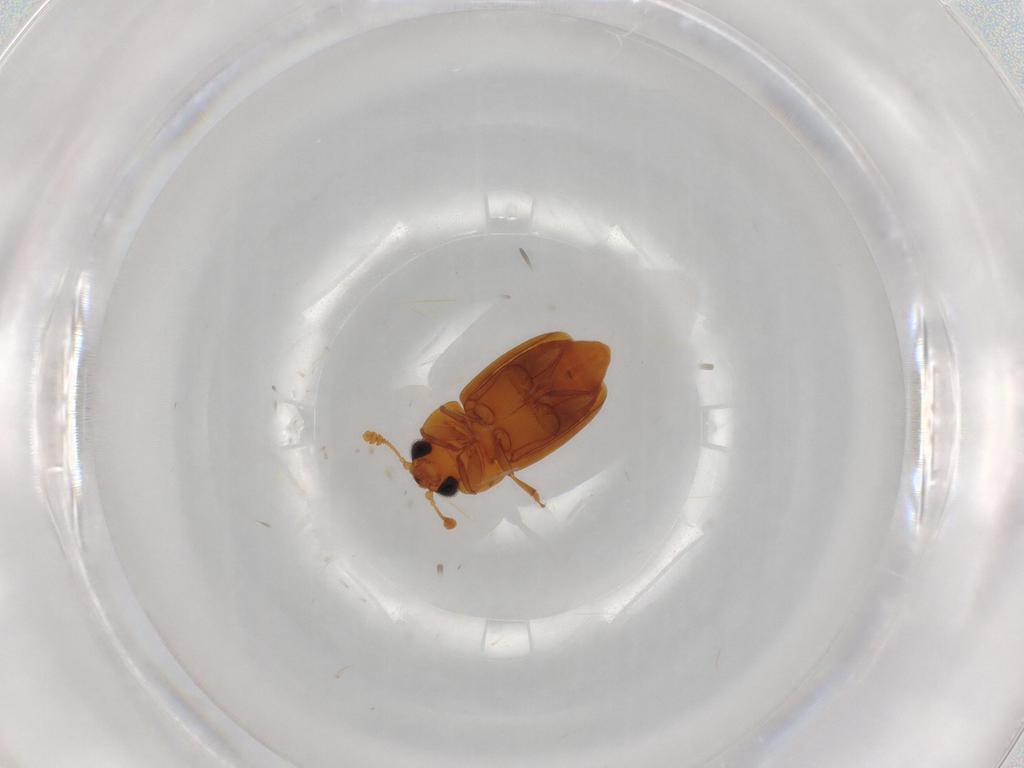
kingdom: Animalia
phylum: Arthropoda
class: Insecta
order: Coleoptera
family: Nitidulidae
